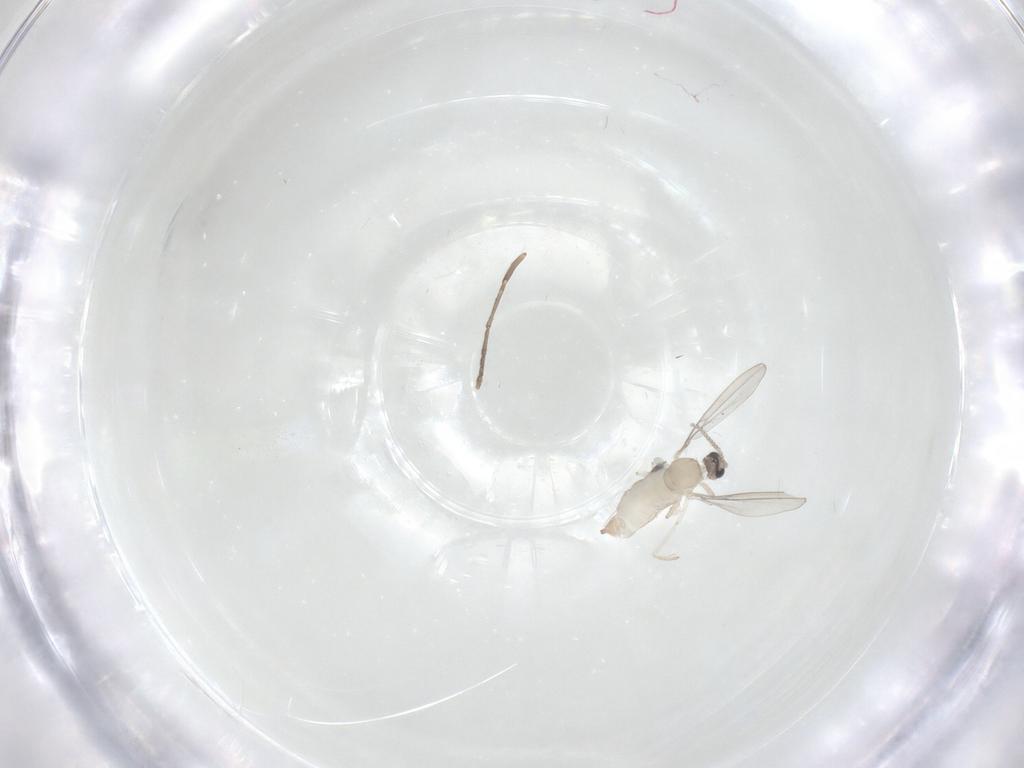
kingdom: Animalia
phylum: Arthropoda
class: Insecta
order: Diptera
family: Cecidomyiidae
